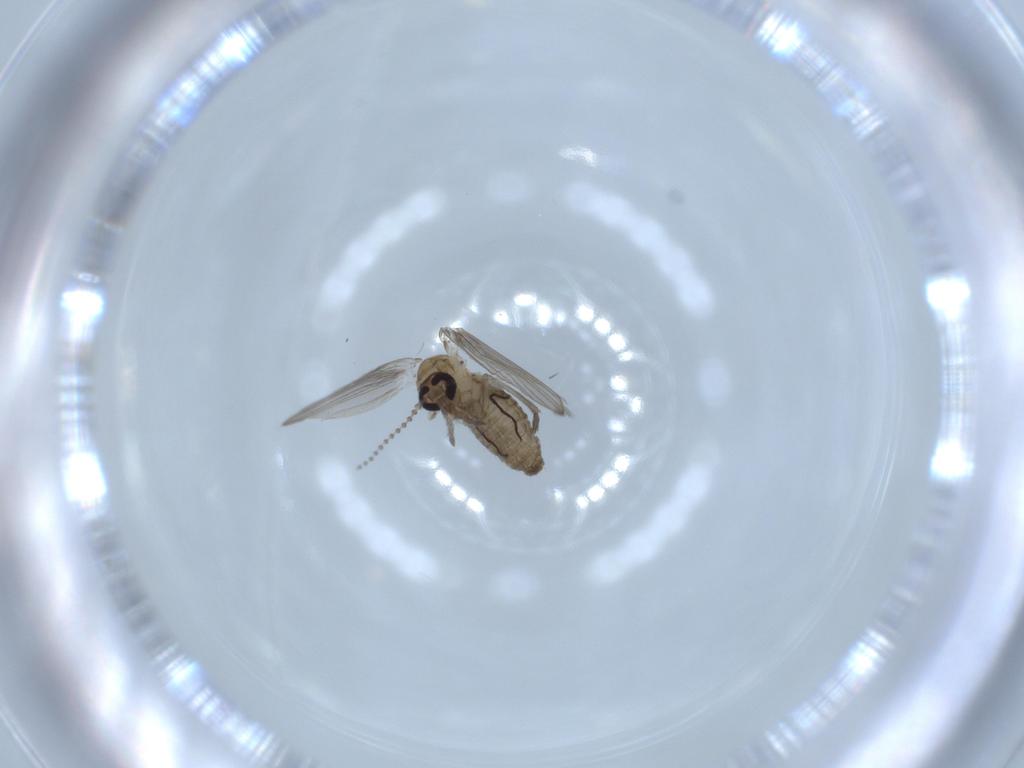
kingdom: Animalia
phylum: Arthropoda
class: Insecta
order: Diptera
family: Psychodidae
